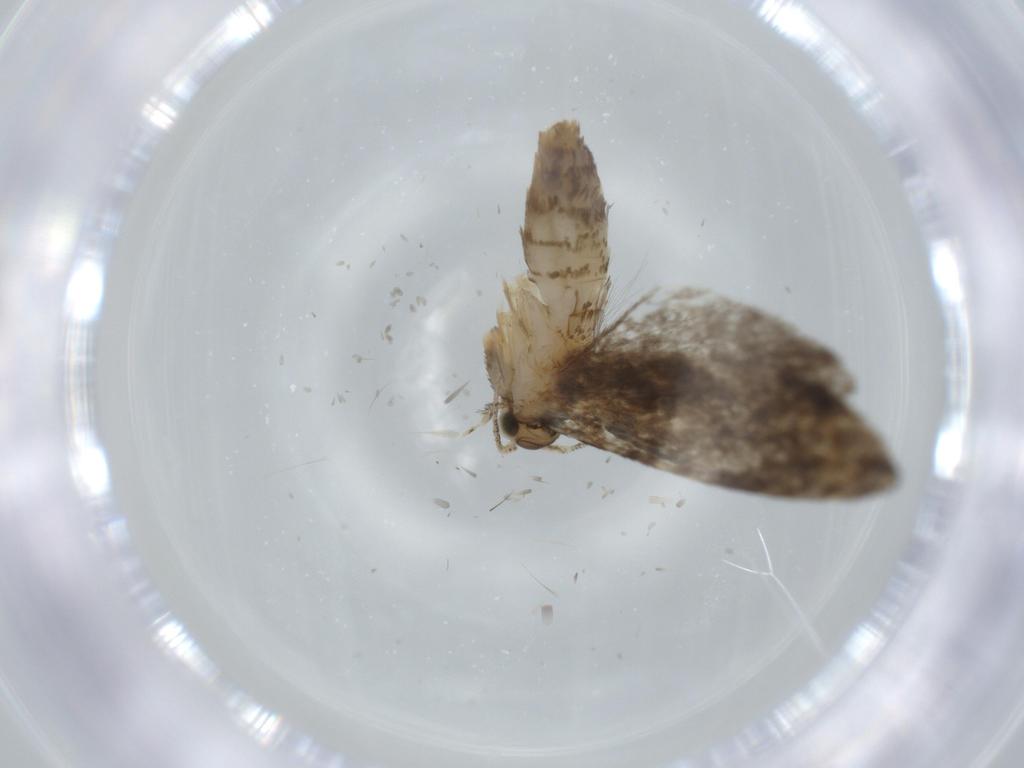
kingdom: Animalia
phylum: Arthropoda
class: Insecta
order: Lepidoptera
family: Tineidae
